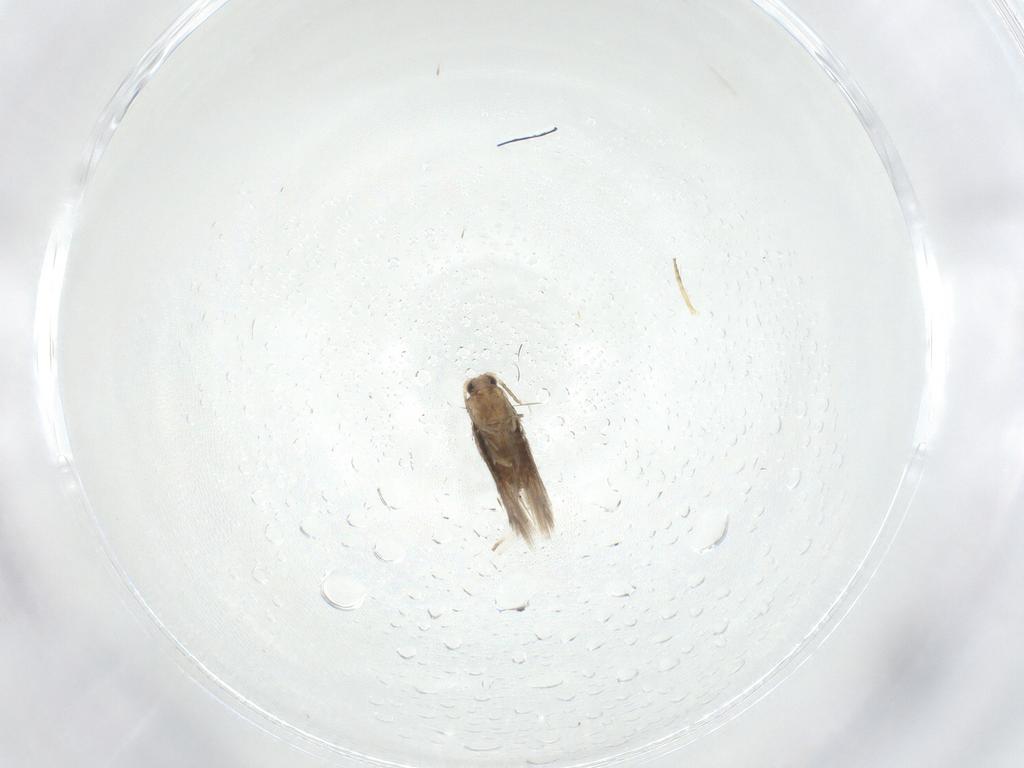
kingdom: Animalia
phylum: Arthropoda
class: Insecta
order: Lepidoptera
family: Nepticulidae
